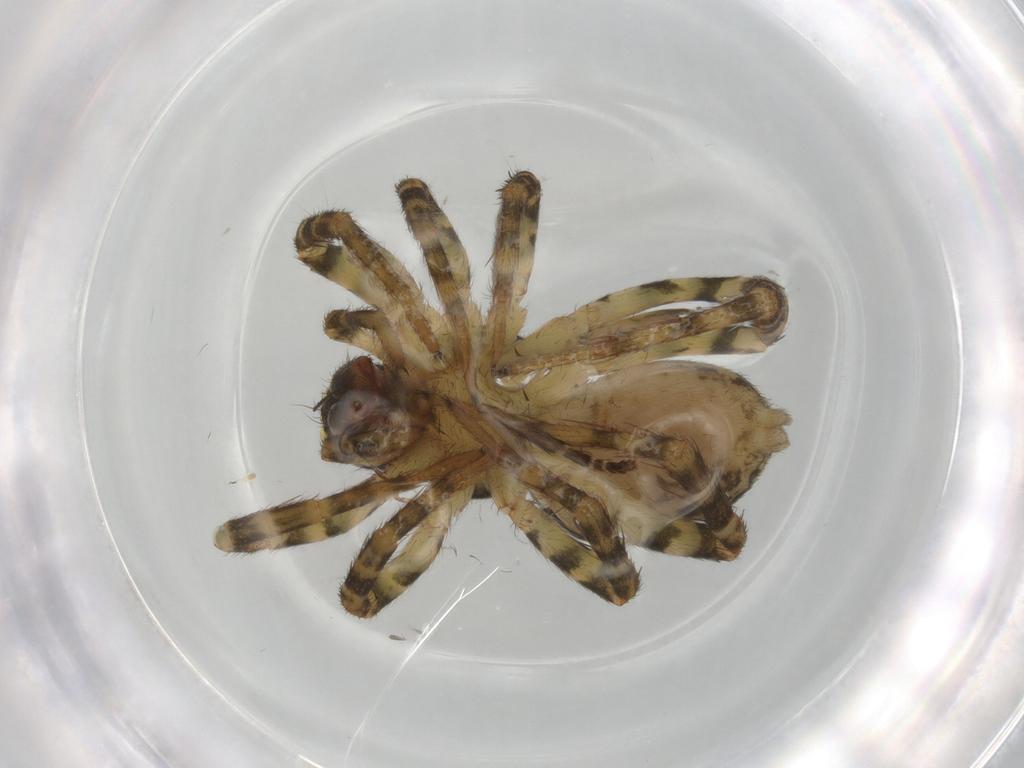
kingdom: Animalia
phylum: Arthropoda
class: Arachnida
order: Araneae
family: Lycosidae
